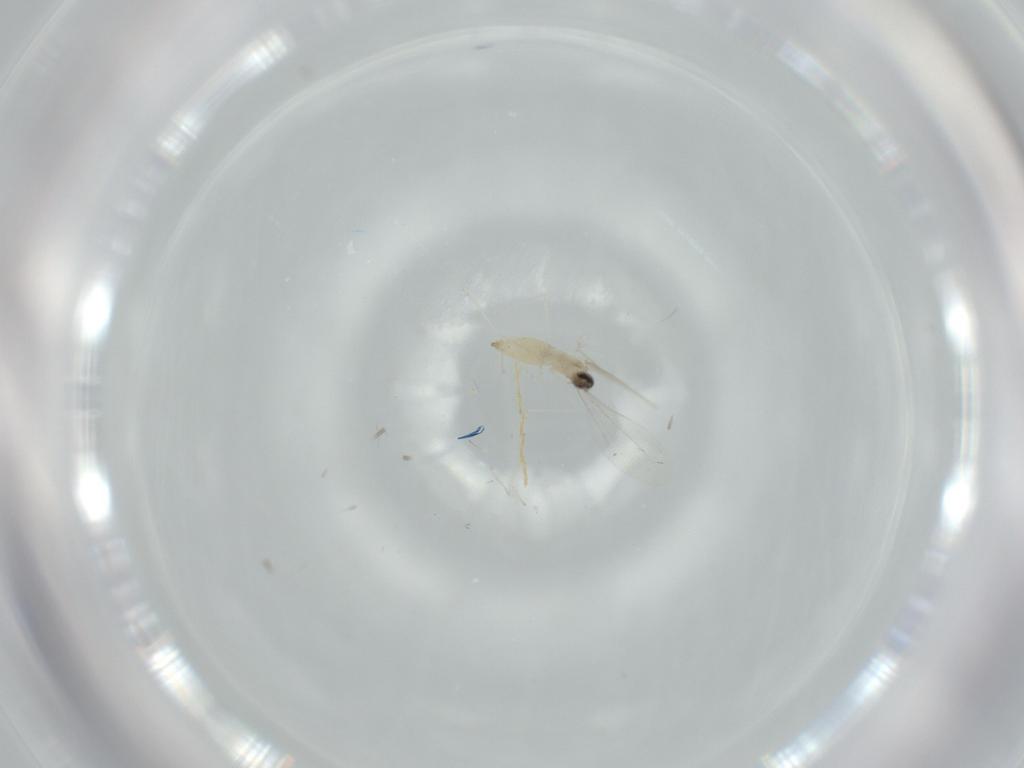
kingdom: Animalia
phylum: Arthropoda
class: Insecta
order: Diptera
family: Cecidomyiidae
